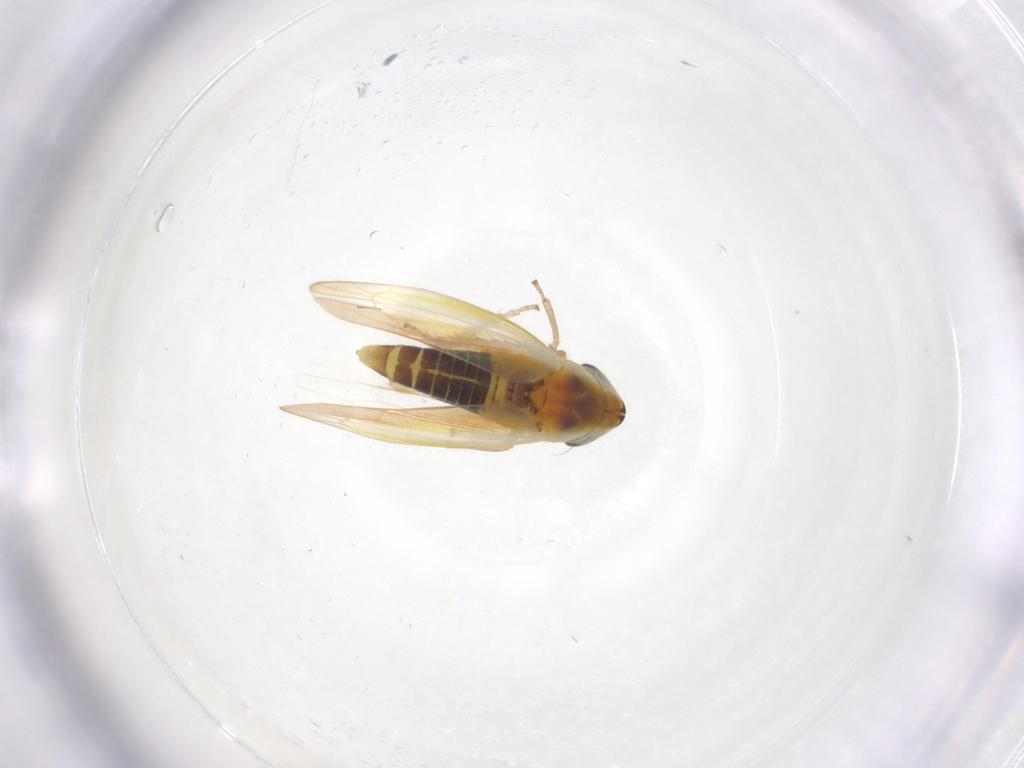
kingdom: Animalia
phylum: Arthropoda
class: Insecta
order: Hemiptera
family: Cicadellidae
